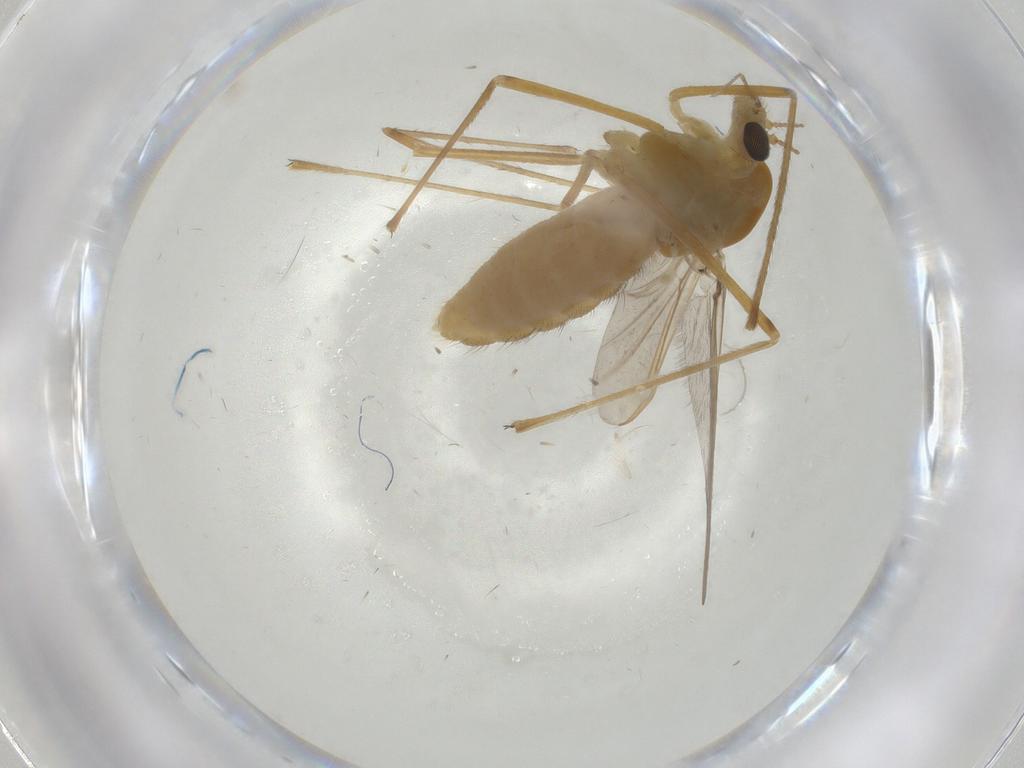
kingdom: Animalia
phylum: Arthropoda
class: Insecta
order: Diptera
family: Chironomidae
